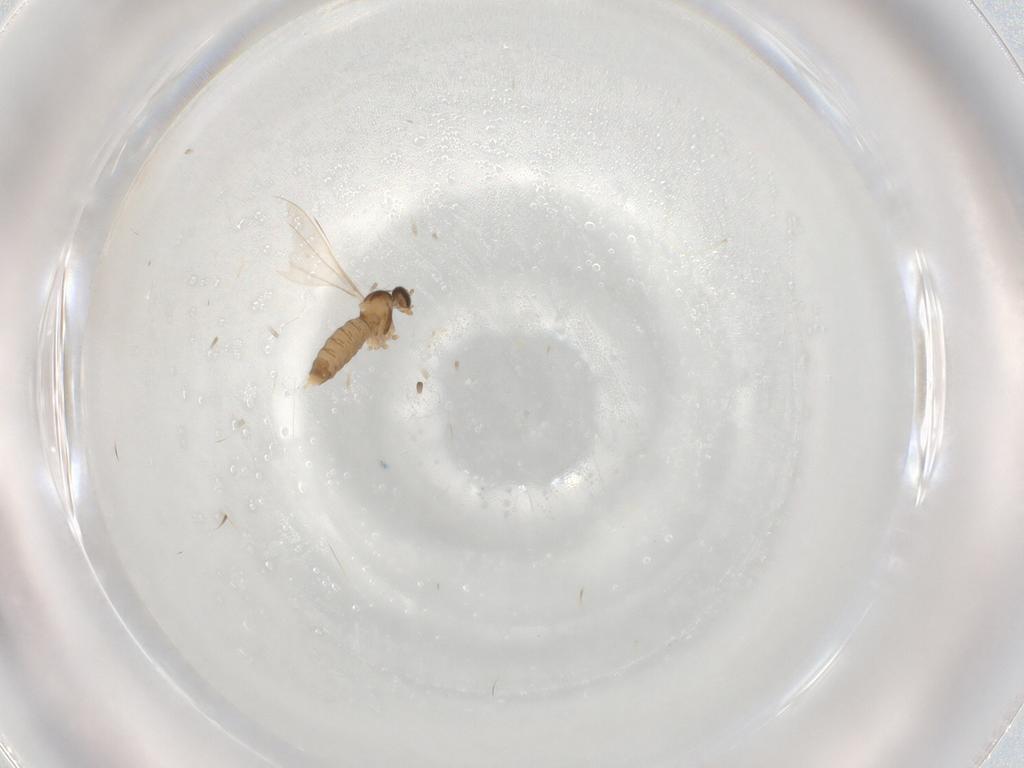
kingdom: Animalia
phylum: Arthropoda
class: Insecta
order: Diptera
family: Cecidomyiidae
